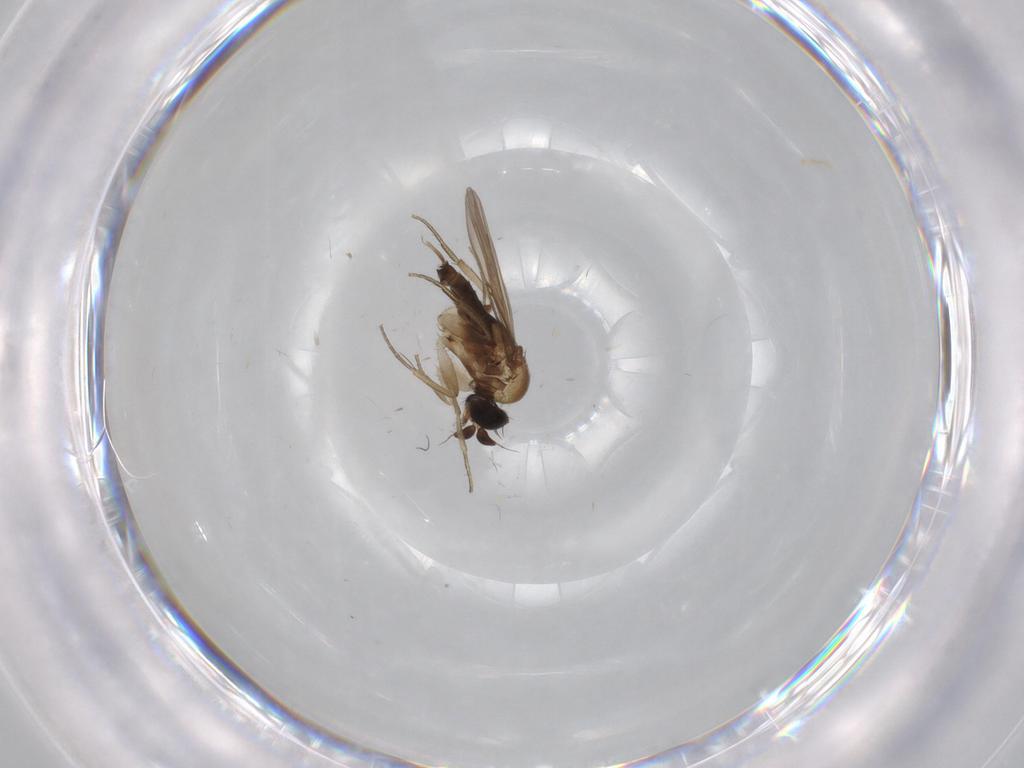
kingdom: Animalia
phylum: Arthropoda
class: Insecta
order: Diptera
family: Phoridae
